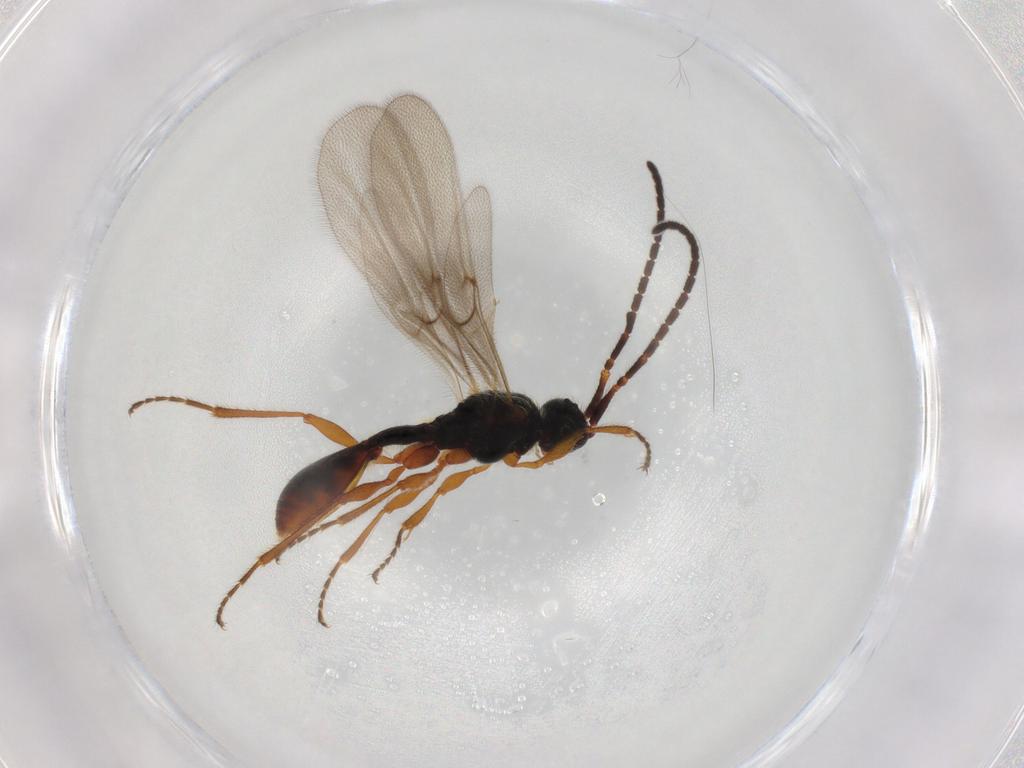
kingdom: Animalia
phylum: Arthropoda
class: Insecta
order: Hymenoptera
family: Diapriidae
